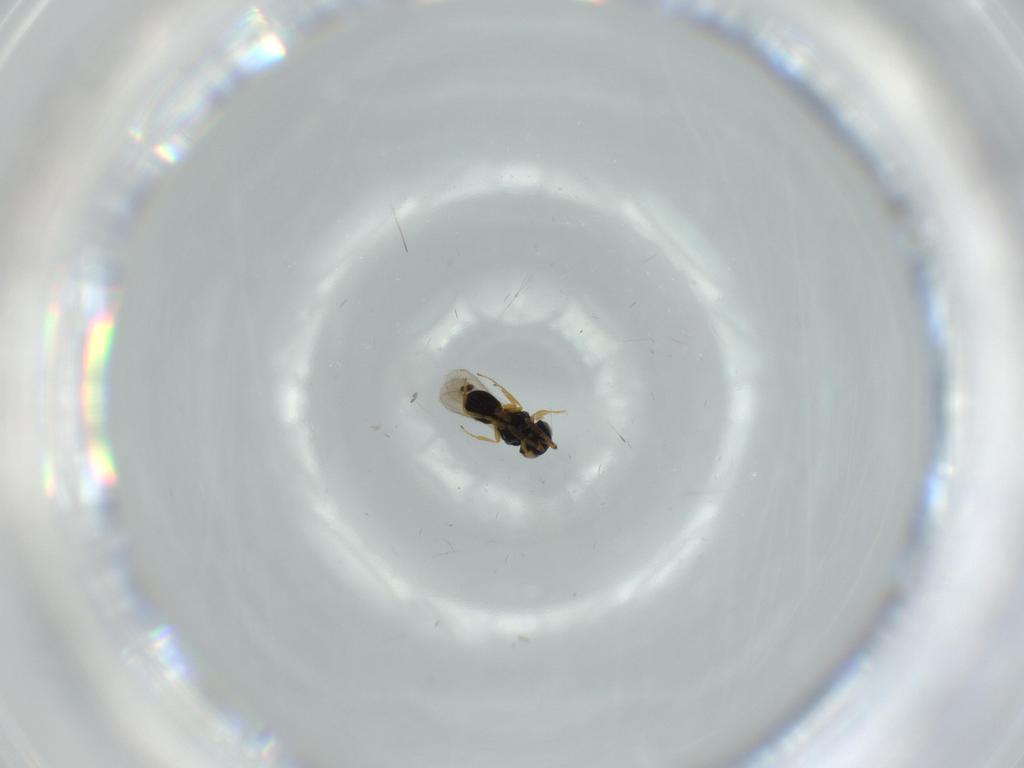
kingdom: Animalia
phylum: Arthropoda
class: Insecta
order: Hymenoptera
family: Scelionidae
